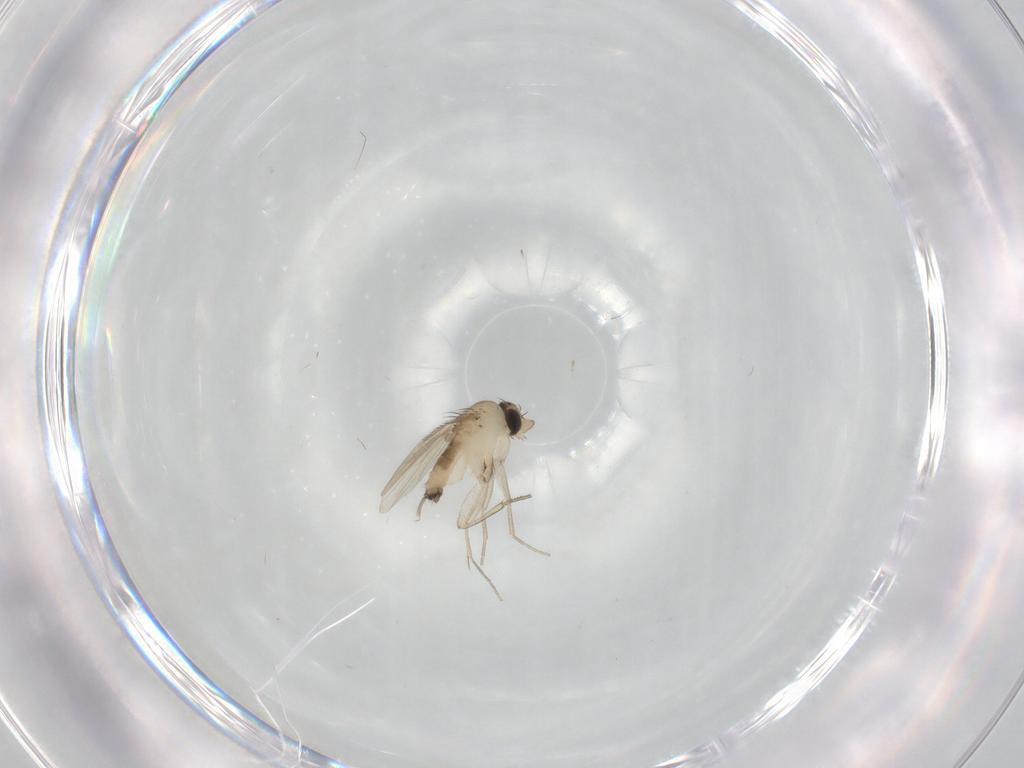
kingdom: Animalia
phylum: Arthropoda
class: Insecta
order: Diptera
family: Phoridae
